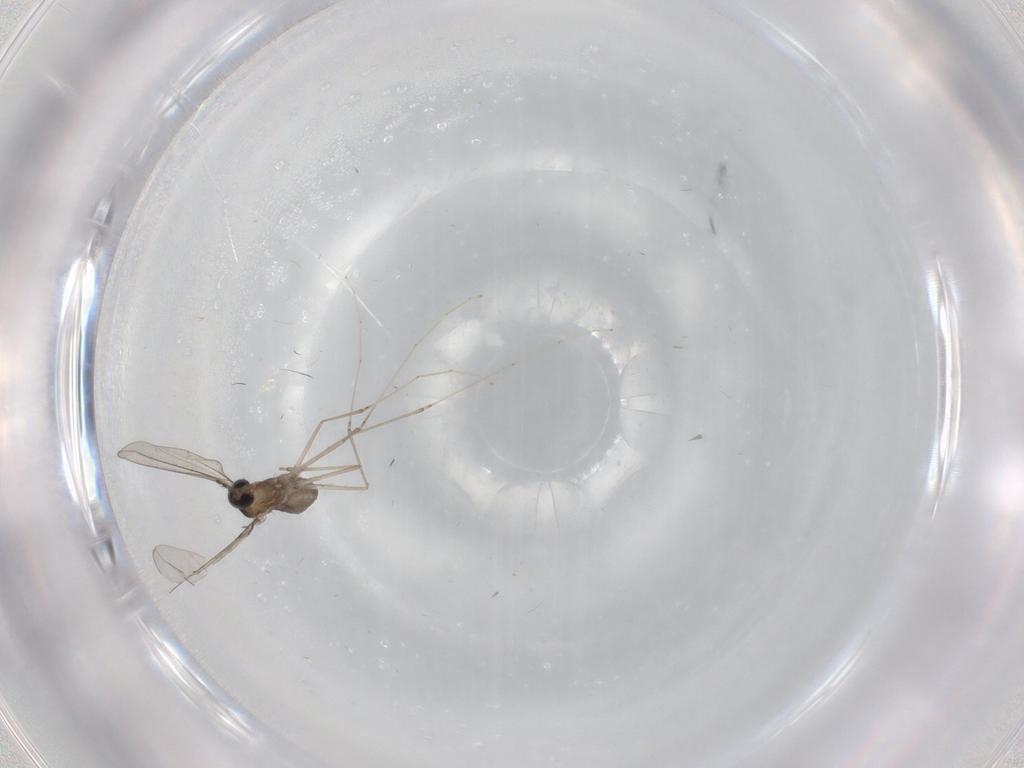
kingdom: Animalia
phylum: Arthropoda
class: Insecta
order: Diptera
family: Cecidomyiidae
